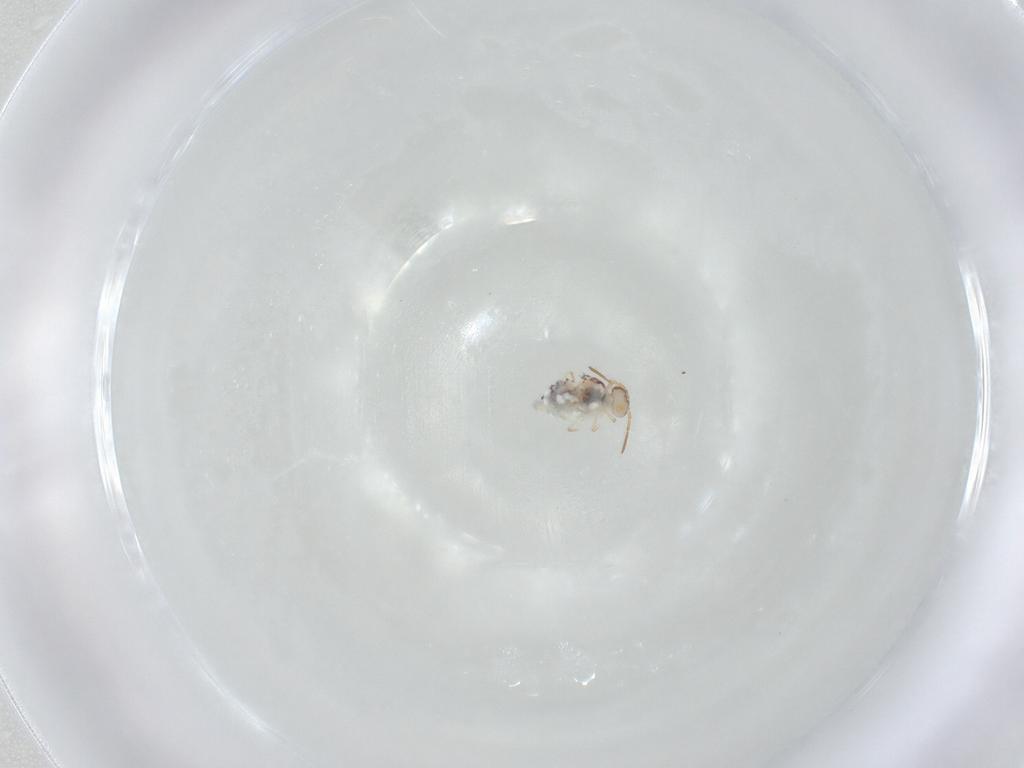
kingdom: Animalia
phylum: Arthropoda
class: Collembola
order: Symphypleona
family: Bourletiellidae
